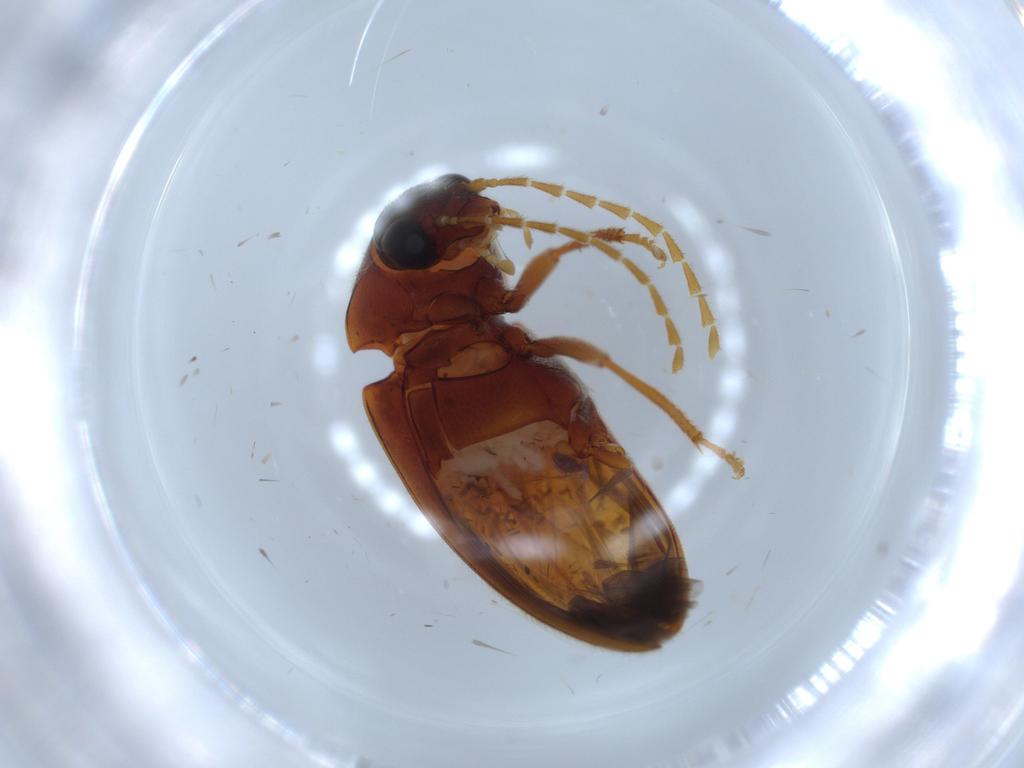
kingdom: Animalia
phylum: Arthropoda
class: Insecta
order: Coleoptera
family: Ptilodactylidae
